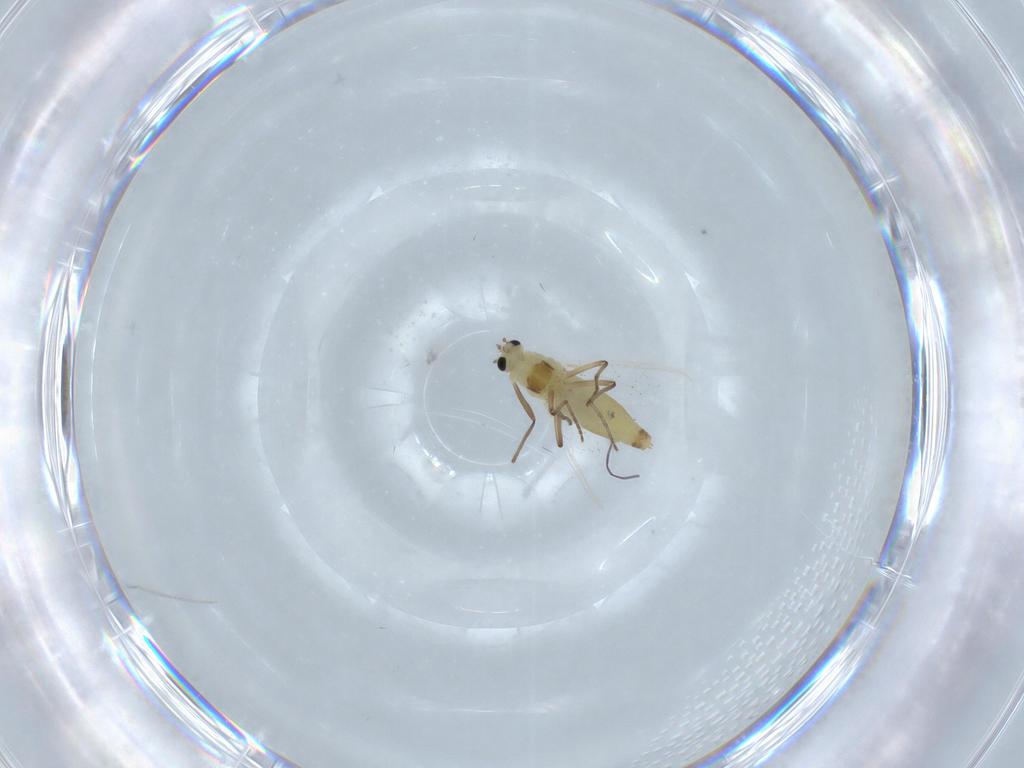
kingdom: Animalia
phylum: Arthropoda
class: Insecta
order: Diptera
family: Chironomidae
